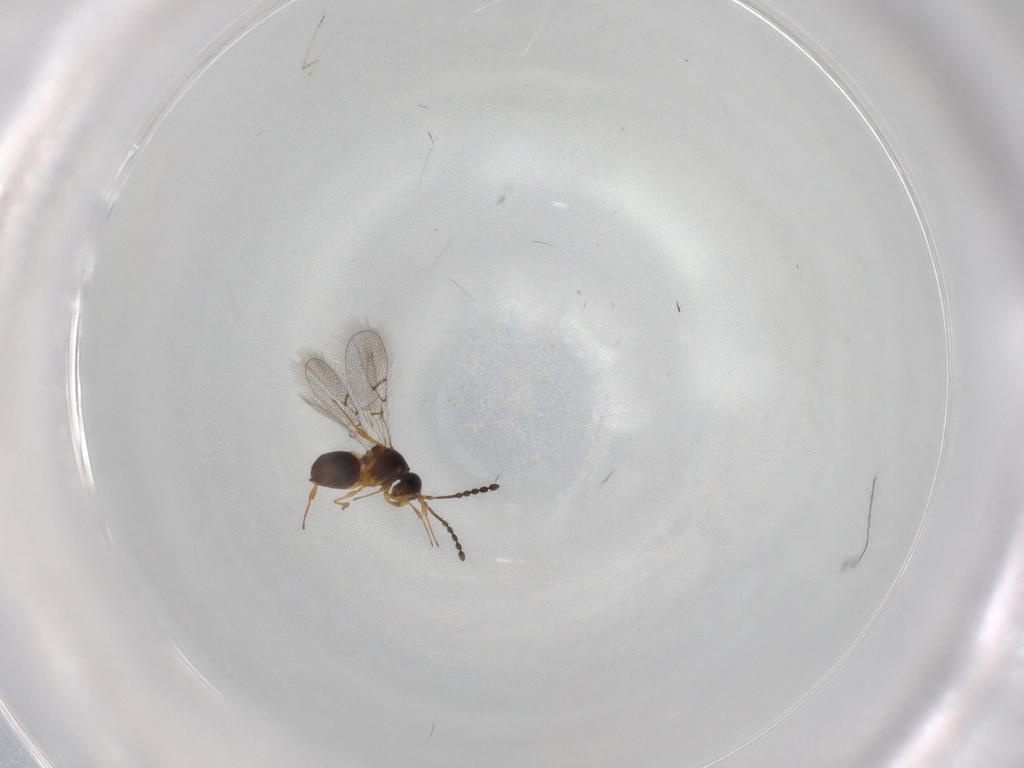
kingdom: Animalia
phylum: Arthropoda
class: Insecta
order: Hymenoptera
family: Figitidae
